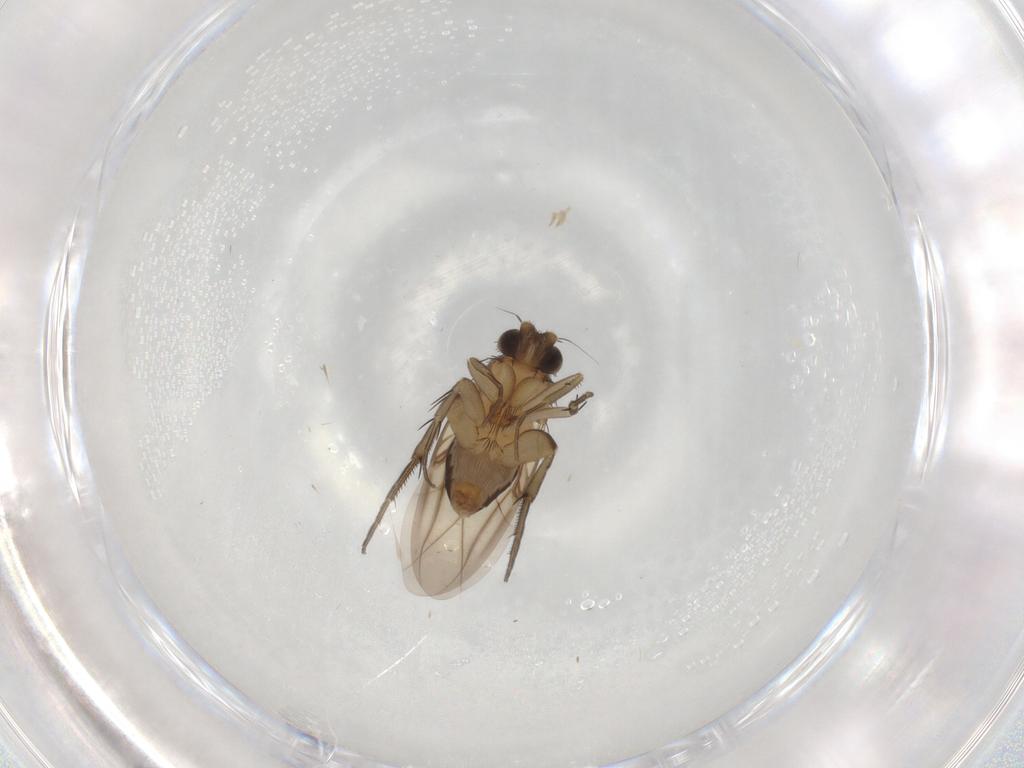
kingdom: Animalia
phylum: Arthropoda
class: Insecta
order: Diptera
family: Phoridae
